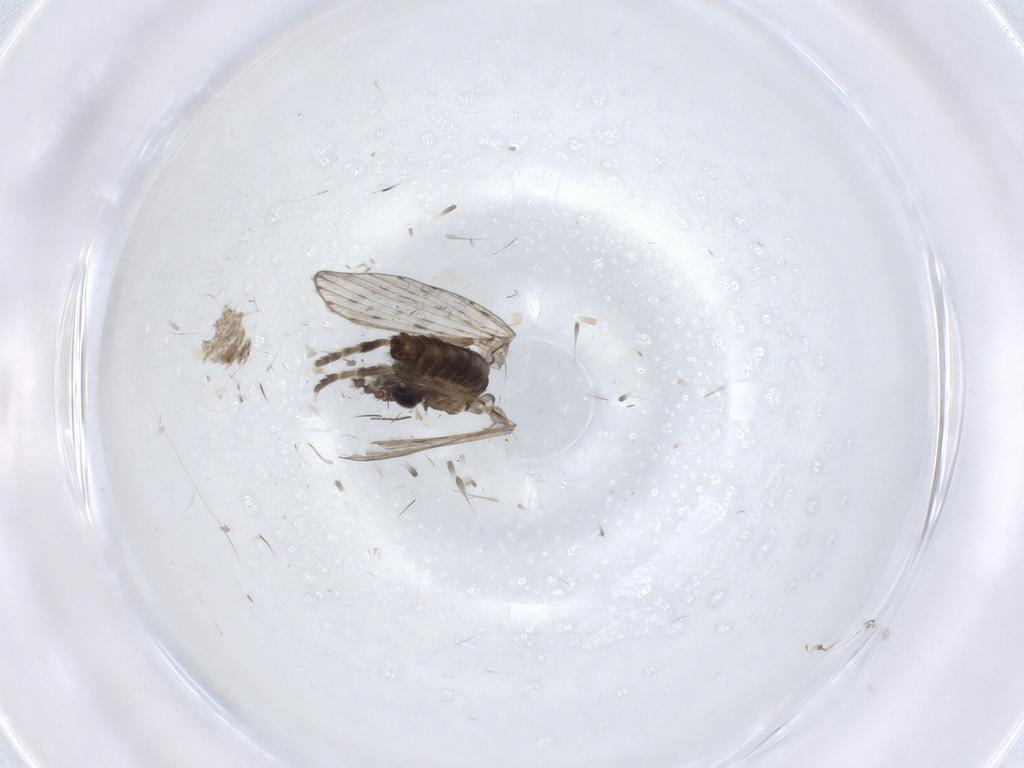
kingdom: Animalia
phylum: Arthropoda
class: Insecta
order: Diptera
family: Psychodidae
